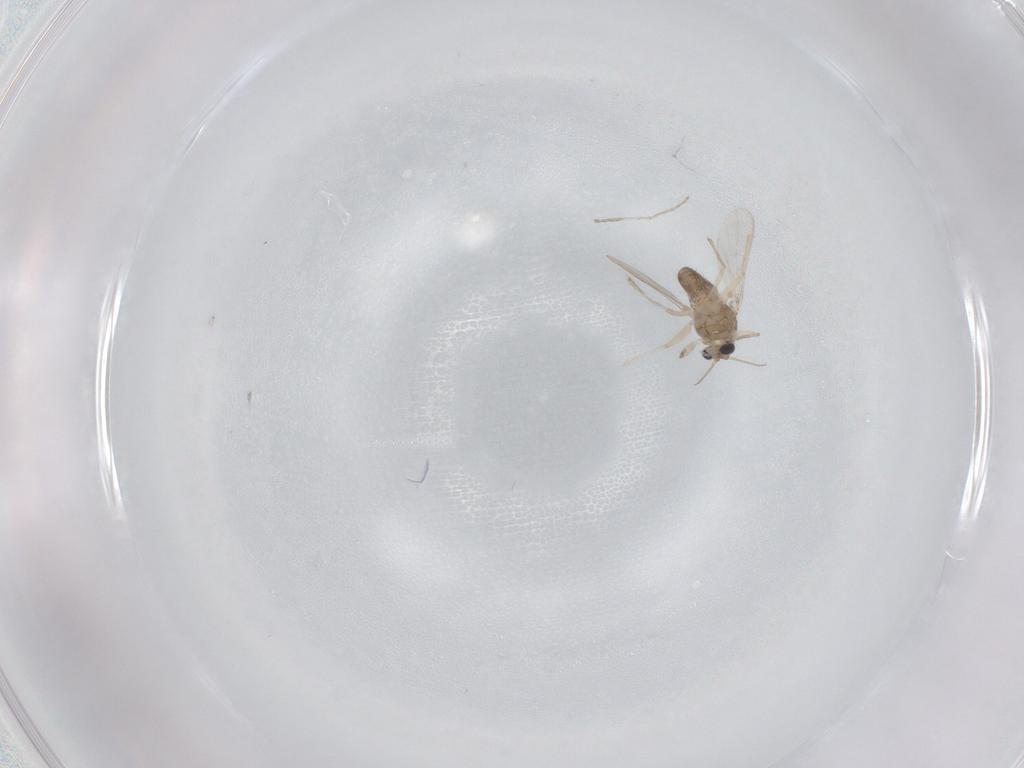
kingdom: Animalia
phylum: Arthropoda
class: Insecta
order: Diptera
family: Chironomidae
